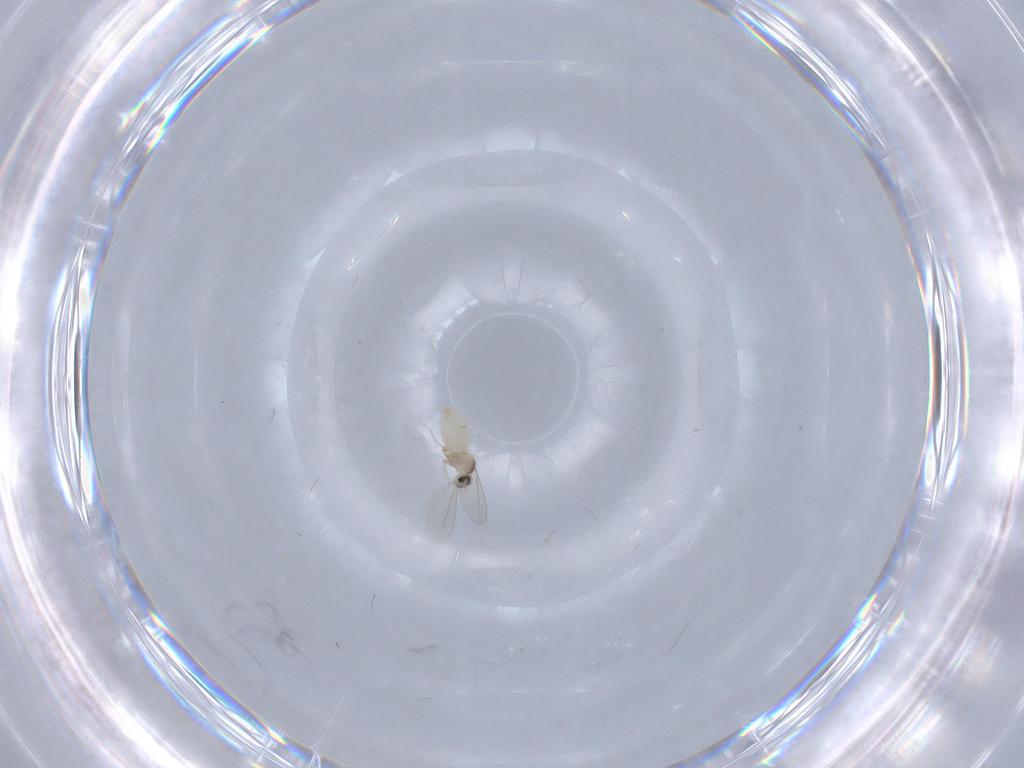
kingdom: Animalia
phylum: Arthropoda
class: Insecta
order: Diptera
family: Cecidomyiidae
